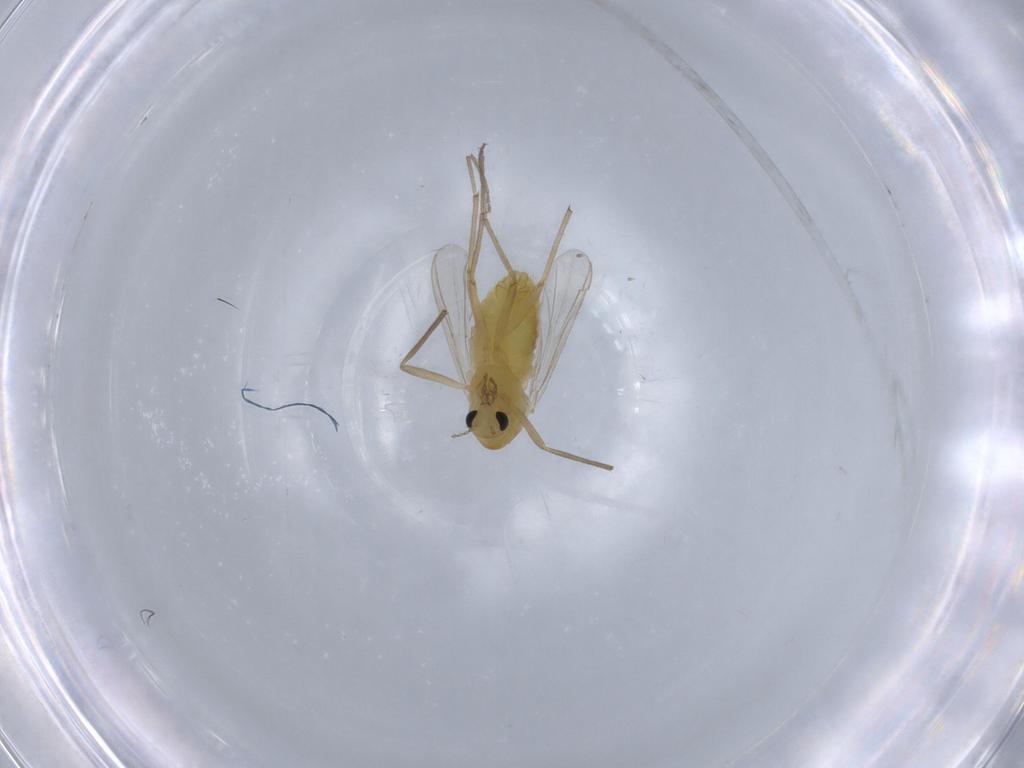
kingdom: Animalia
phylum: Arthropoda
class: Insecta
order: Diptera
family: Chironomidae
